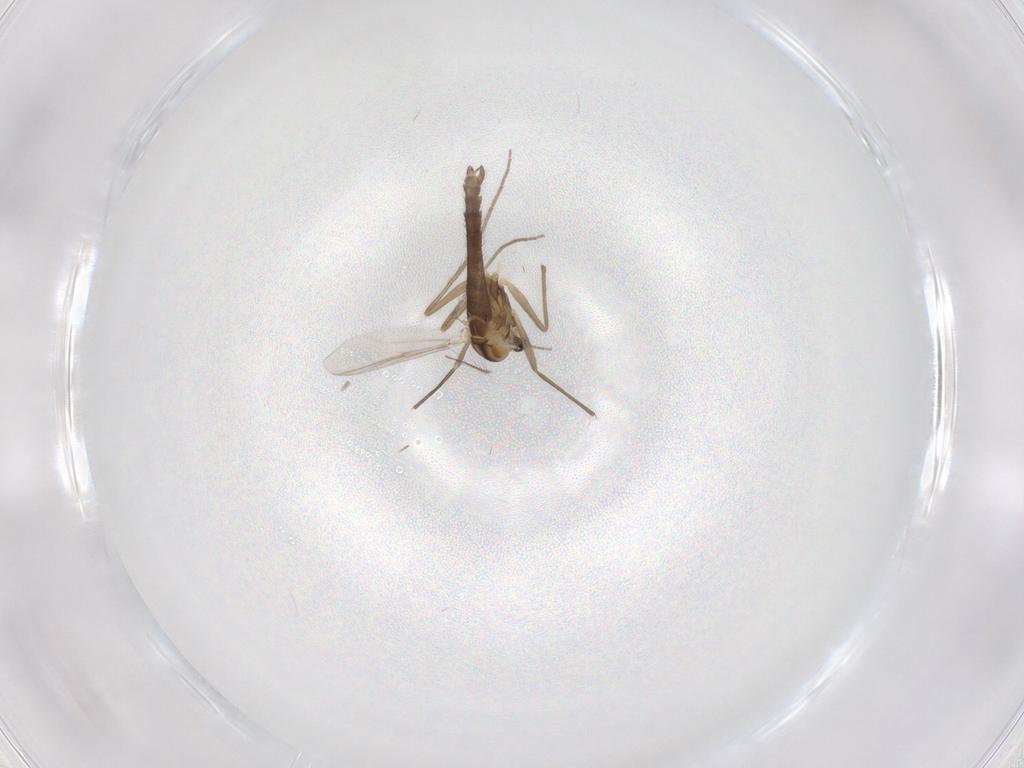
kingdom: Animalia
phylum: Arthropoda
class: Insecta
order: Diptera
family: Chironomidae
